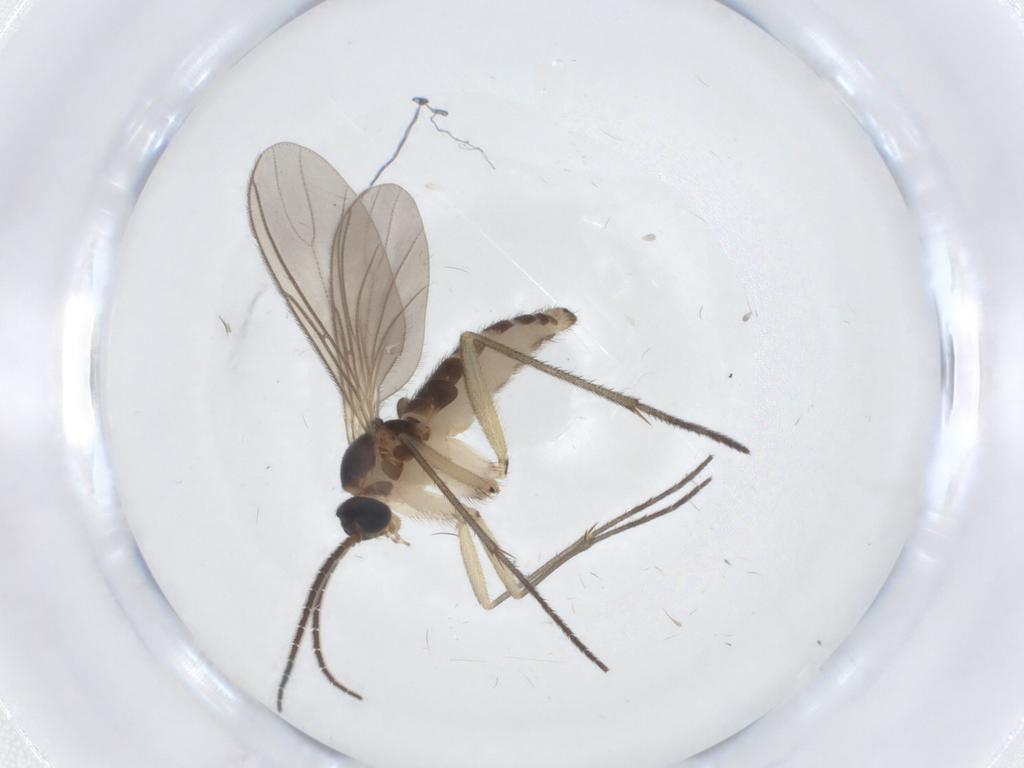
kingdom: Animalia
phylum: Arthropoda
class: Insecta
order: Diptera
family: Sciaridae
